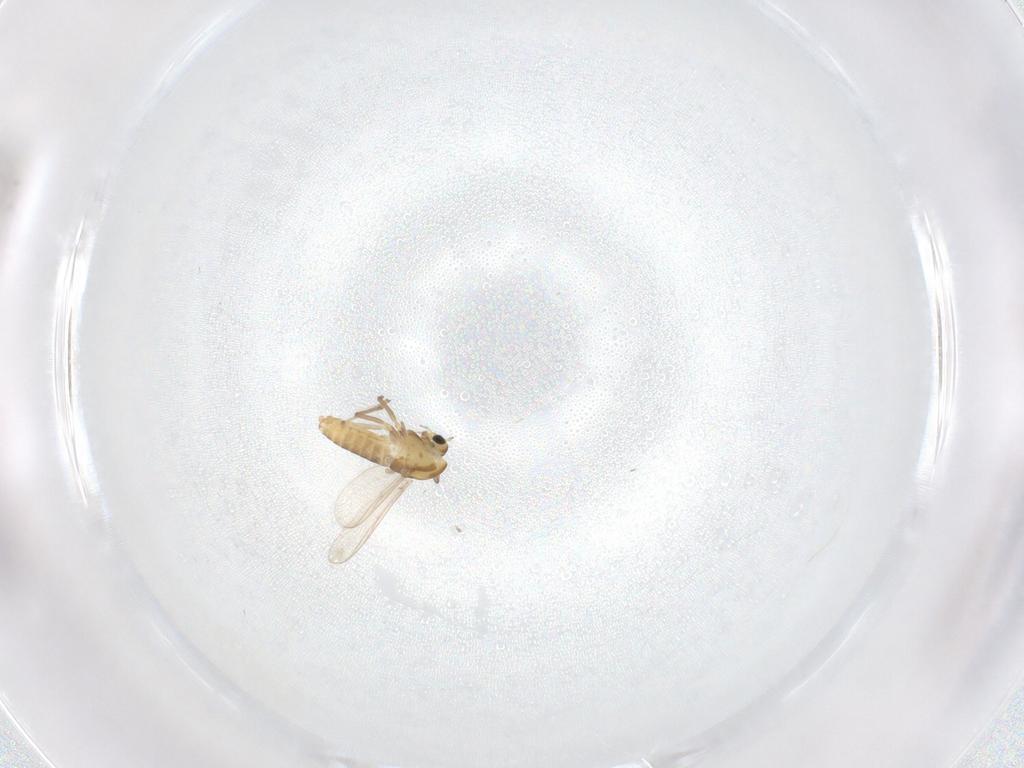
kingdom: Animalia
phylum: Arthropoda
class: Insecta
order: Diptera
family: Chironomidae
